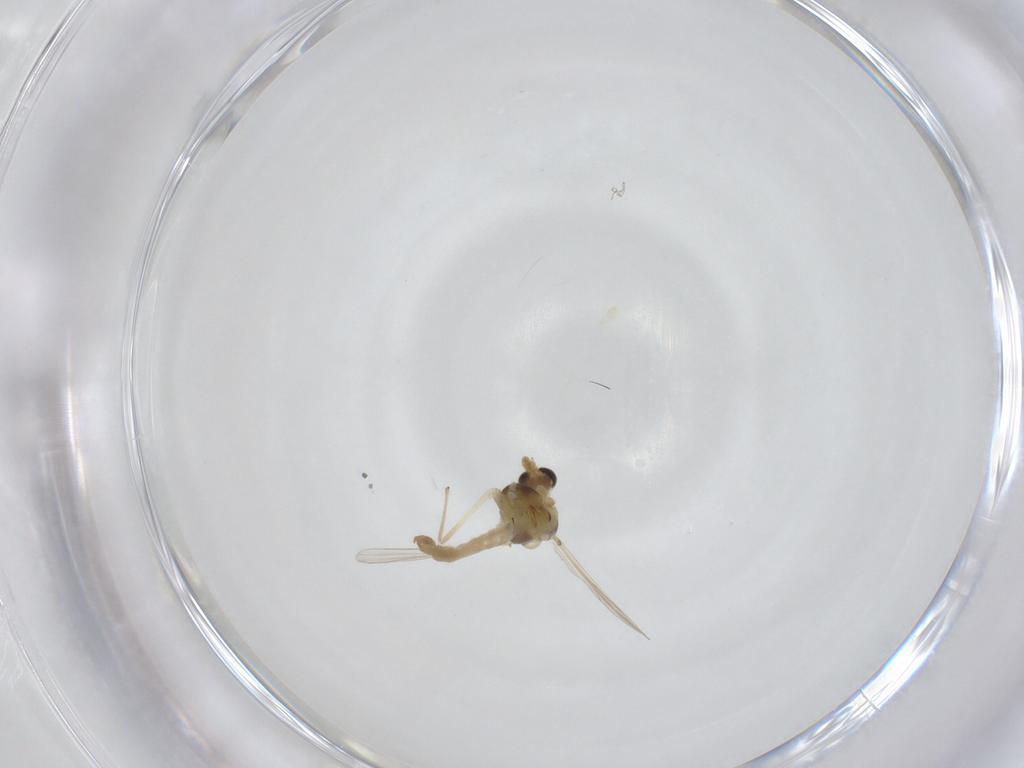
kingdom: Animalia
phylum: Arthropoda
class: Insecta
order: Diptera
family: Chironomidae
